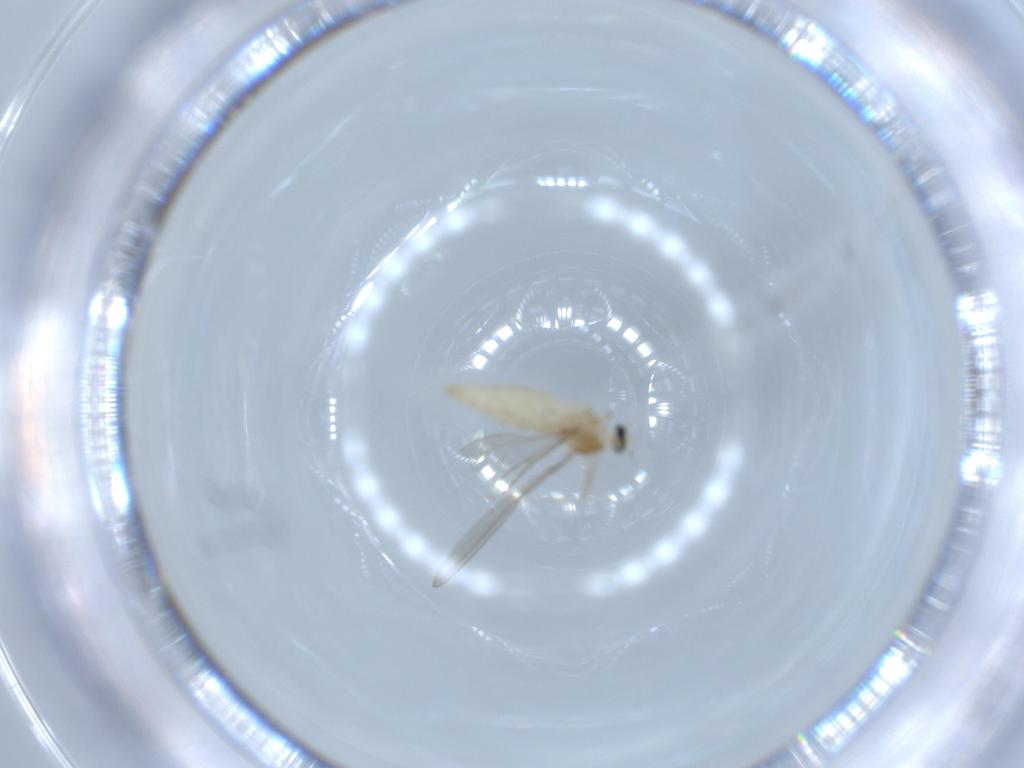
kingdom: Animalia
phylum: Arthropoda
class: Insecta
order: Diptera
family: Cecidomyiidae
